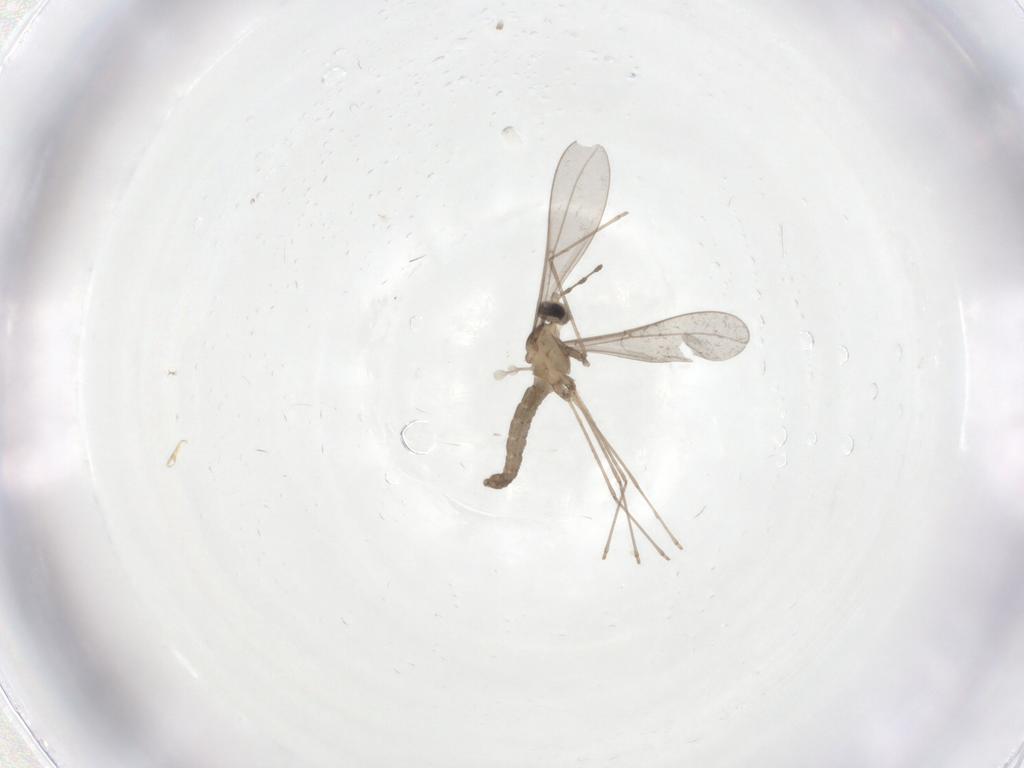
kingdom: Animalia
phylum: Arthropoda
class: Insecta
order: Diptera
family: Cecidomyiidae
